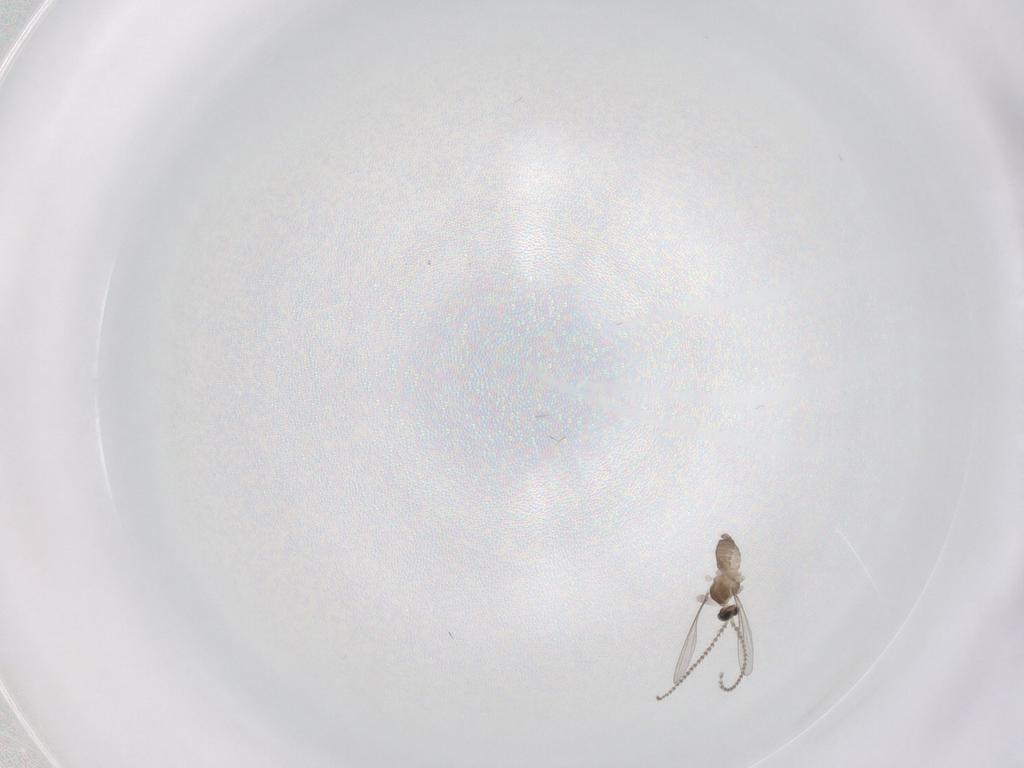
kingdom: Animalia
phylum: Arthropoda
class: Insecta
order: Diptera
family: Cecidomyiidae
